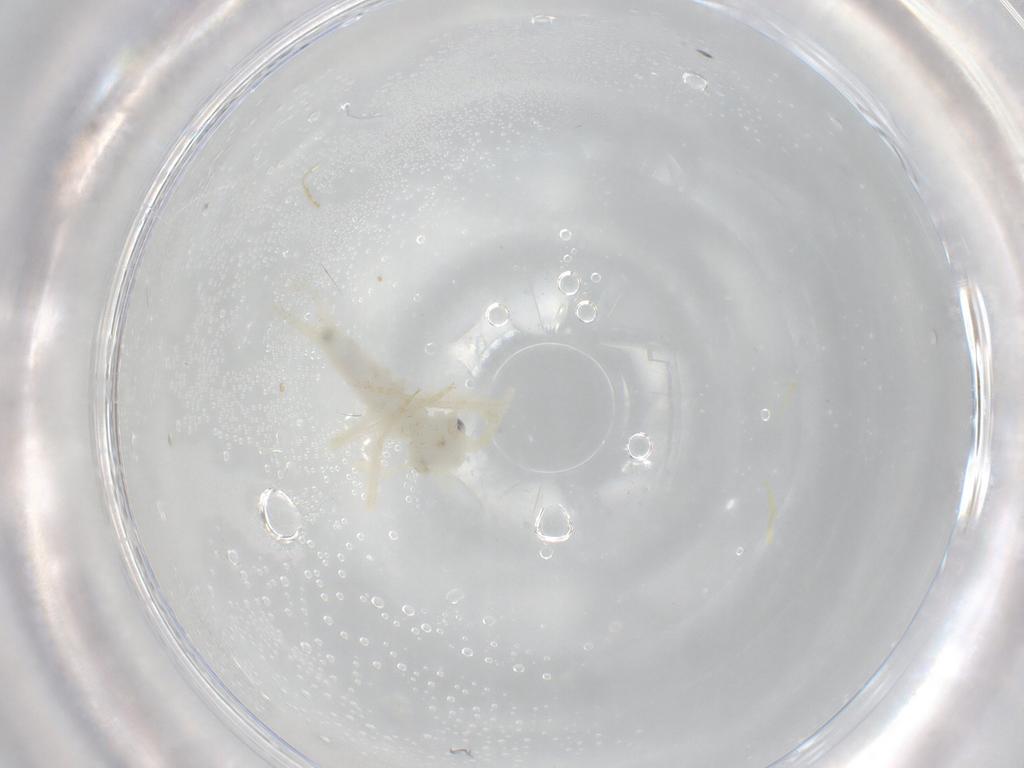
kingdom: Animalia
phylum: Arthropoda
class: Insecta
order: Orthoptera
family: Trigonidiidae
